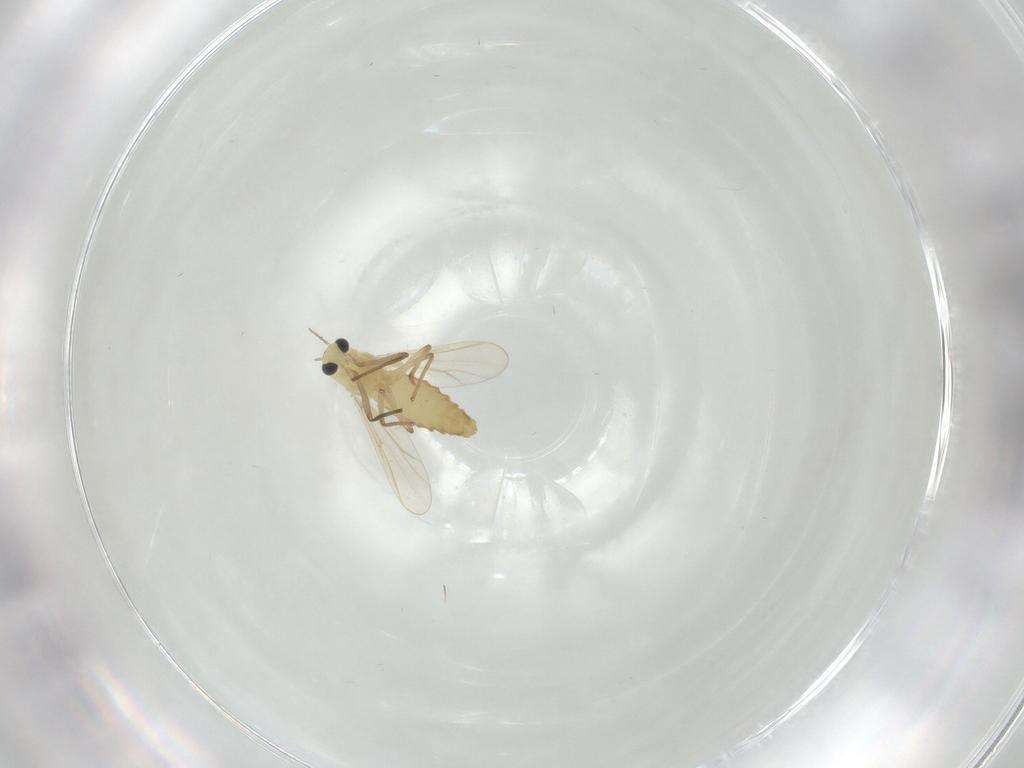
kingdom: Animalia
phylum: Arthropoda
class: Insecta
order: Diptera
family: Chironomidae
